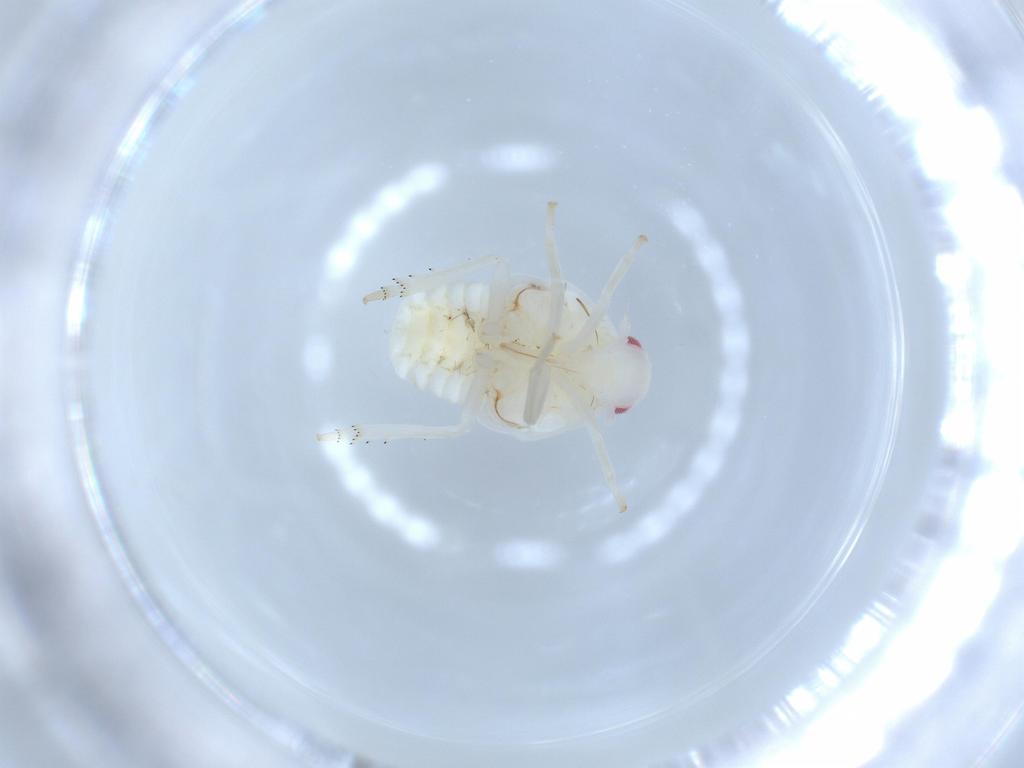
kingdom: Animalia
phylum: Arthropoda
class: Insecta
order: Hemiptera
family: Flatidae
